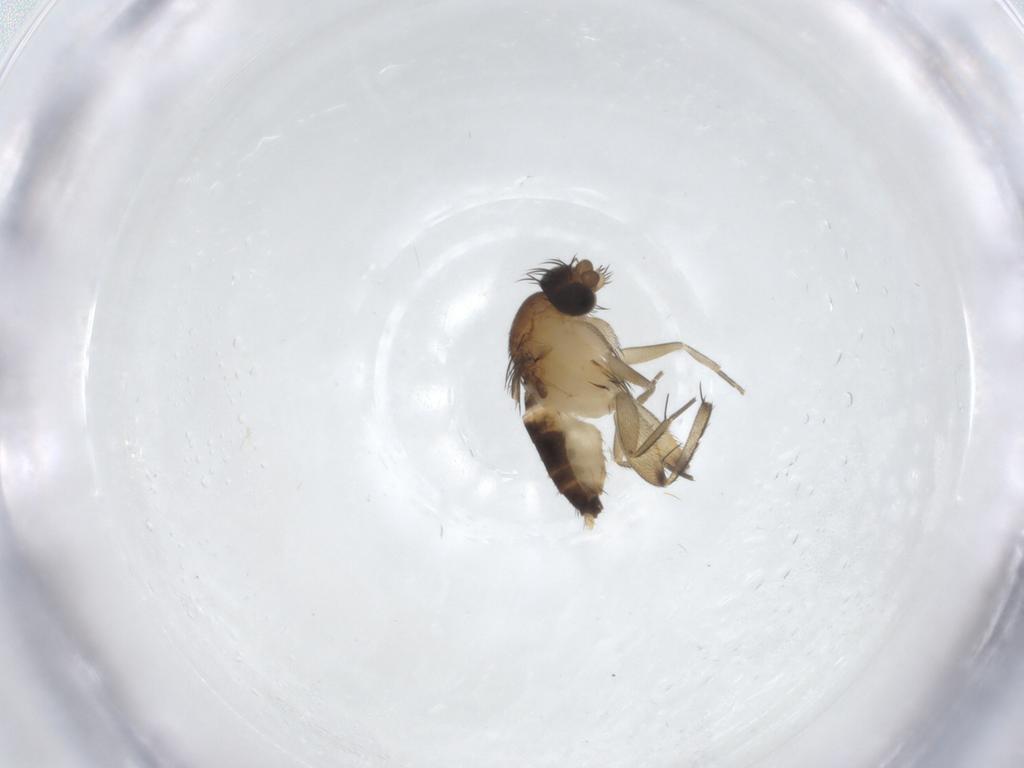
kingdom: Animalia
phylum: Arthropoda
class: Insecta
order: Diptera
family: Phoridae
